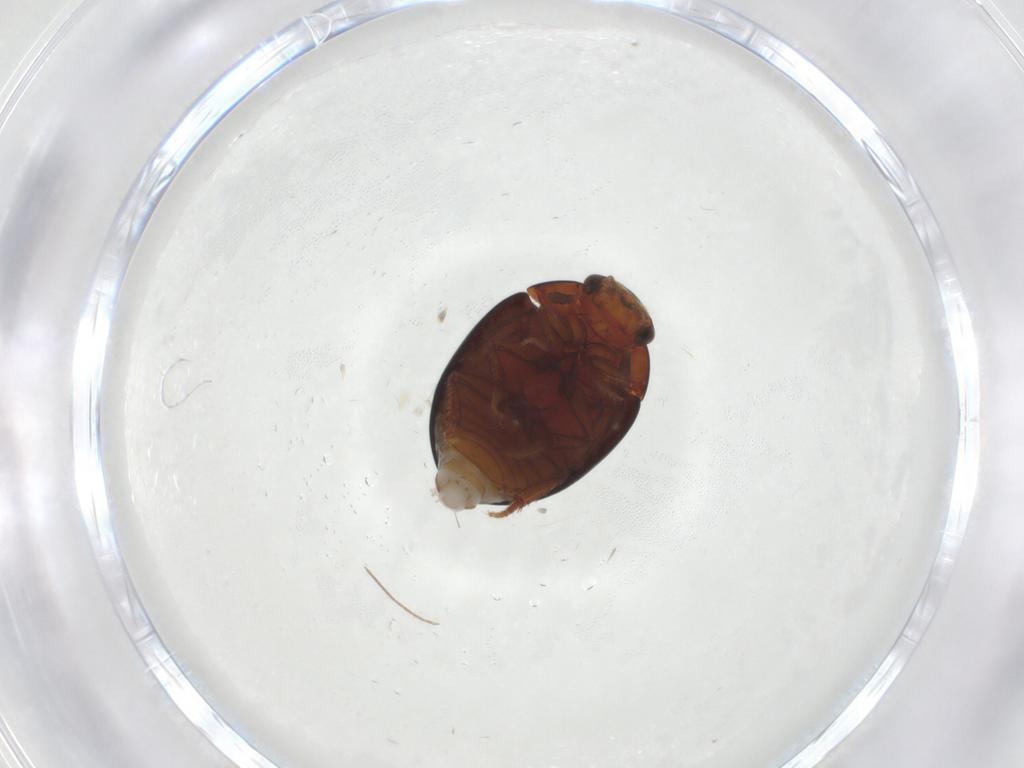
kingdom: Animalia
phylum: Arthropoda
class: Insecta
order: Coleoptera
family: Hydrophilidae
